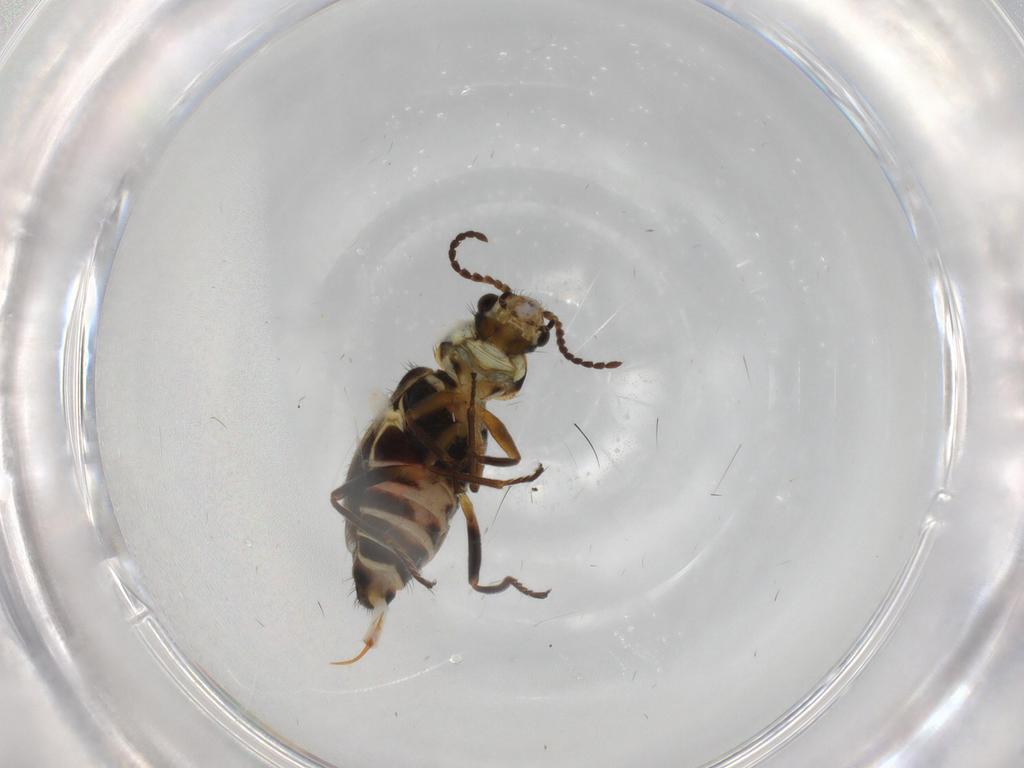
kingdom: Animalia
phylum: Arthropoda
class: Insecta
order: Coleoptera
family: Melyridae
